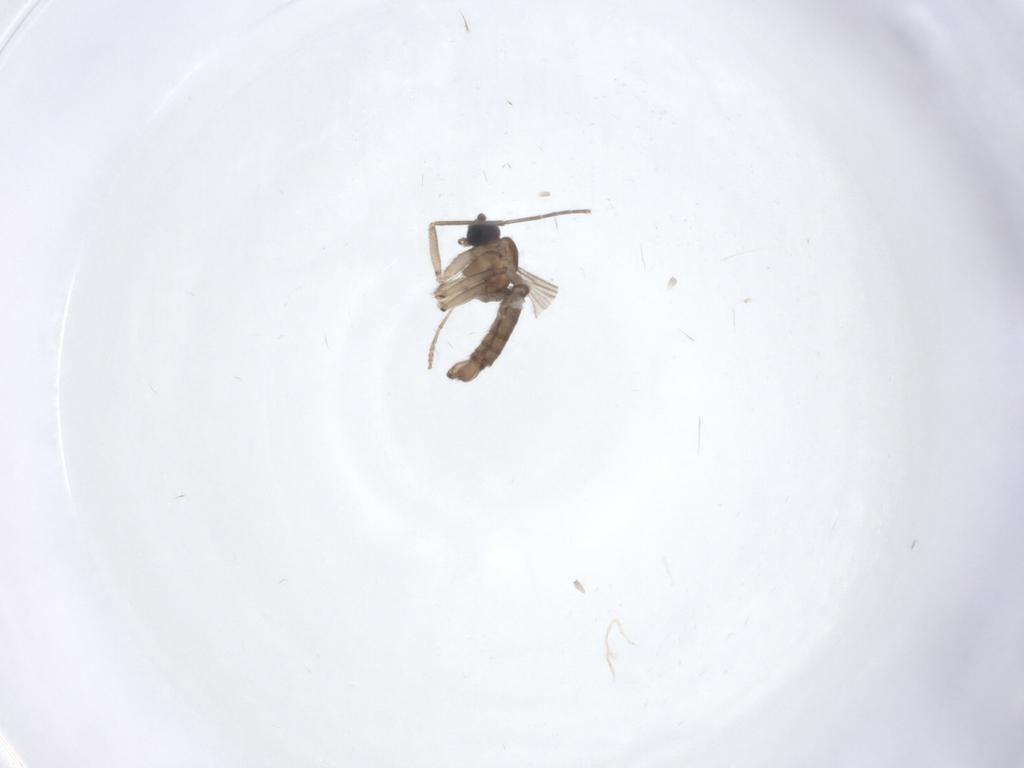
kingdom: Animalia
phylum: Arthropoda
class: Insecta
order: Diptera
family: Sciaridae
